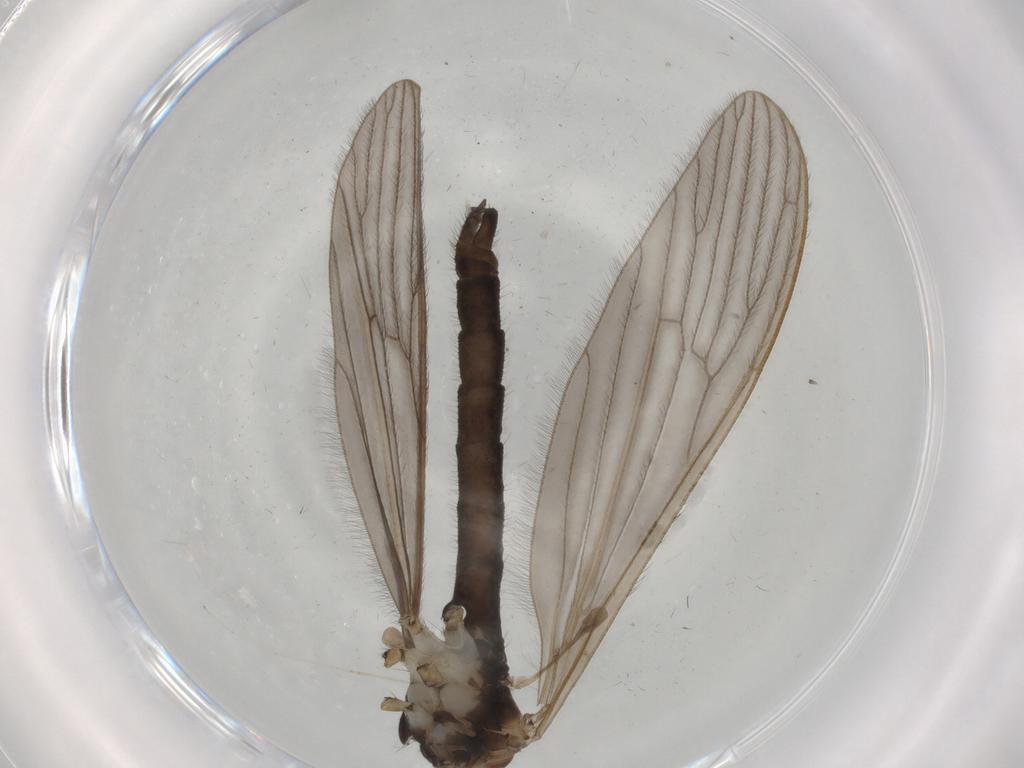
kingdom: Animalia
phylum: Arthropoda
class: Insecta
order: Diptera
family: Limoniidae
